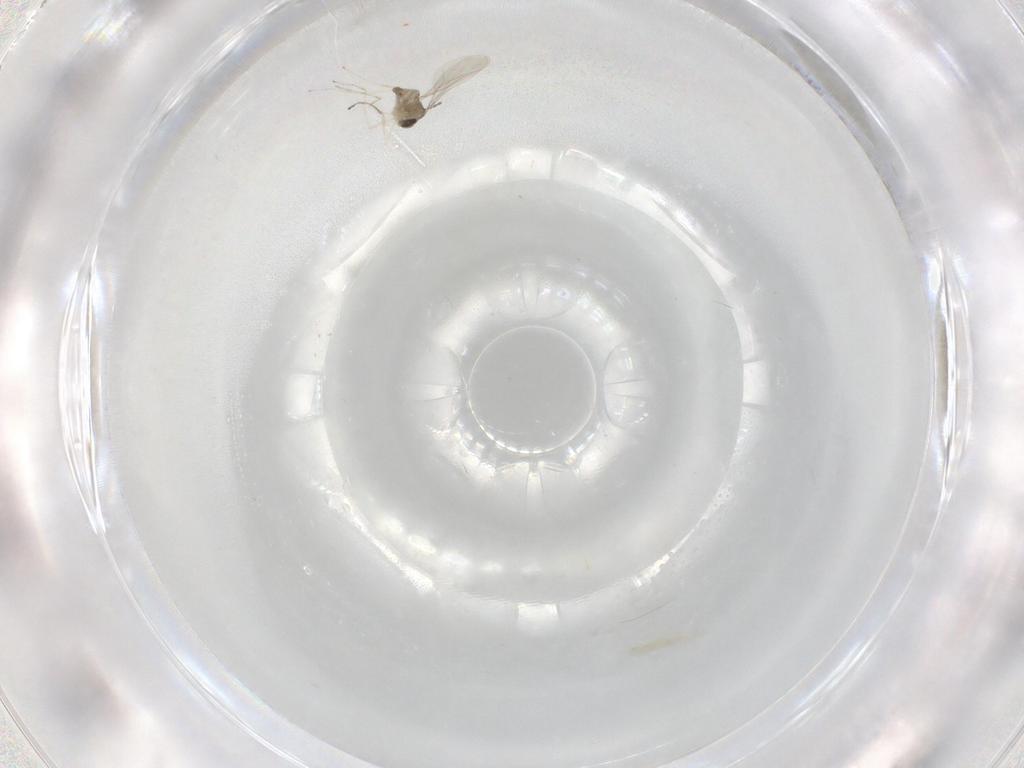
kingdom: Animalia
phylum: Arthropoda
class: Insecta
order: Diptera
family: Cecidomyiidae
